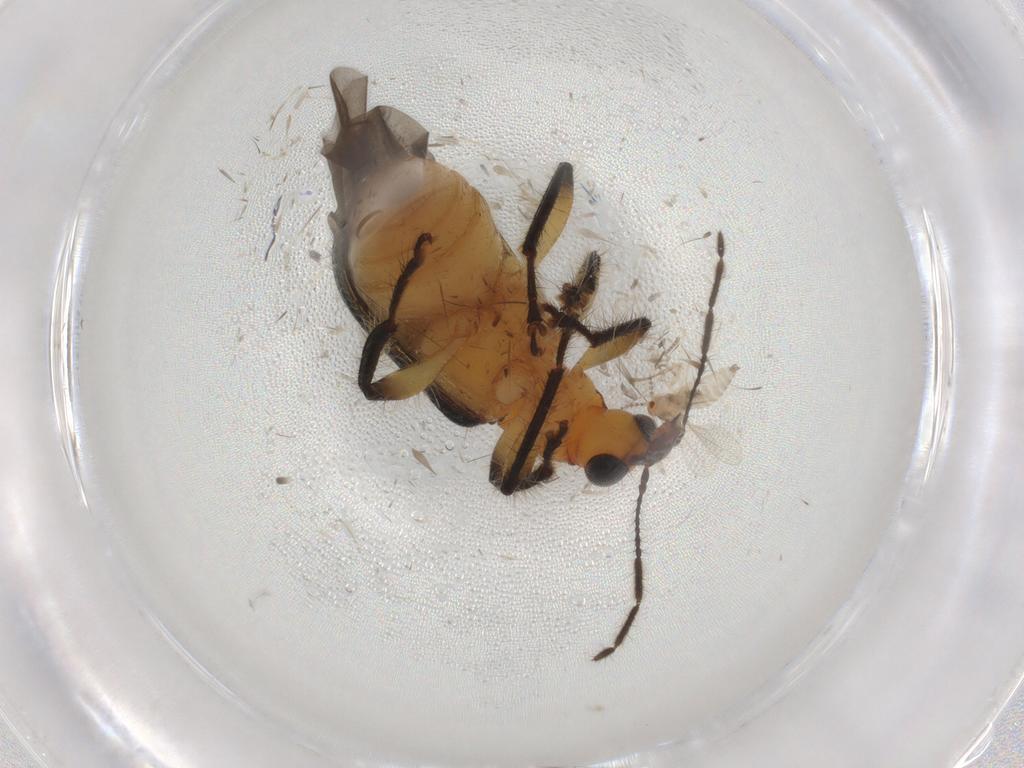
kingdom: Animalia
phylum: Arthropoda
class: Insecta
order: Coleoptera
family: Attelabidae
